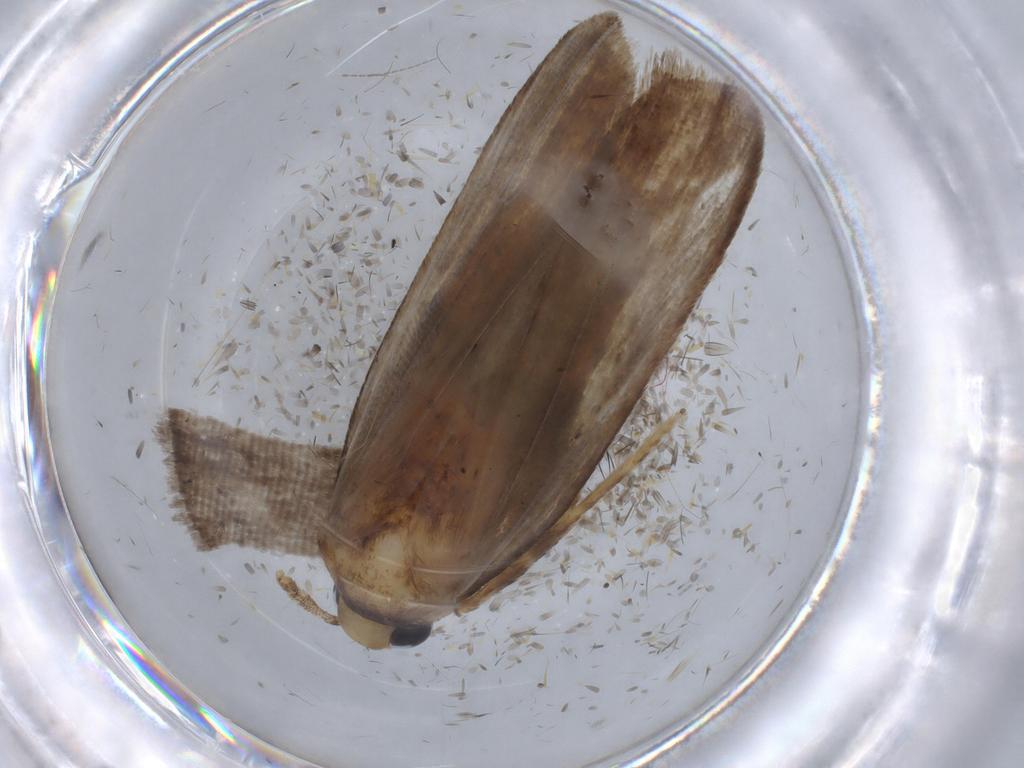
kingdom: Animalia
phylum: Arthropoda
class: Insecta
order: Lepidoptera
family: Autostichidae
